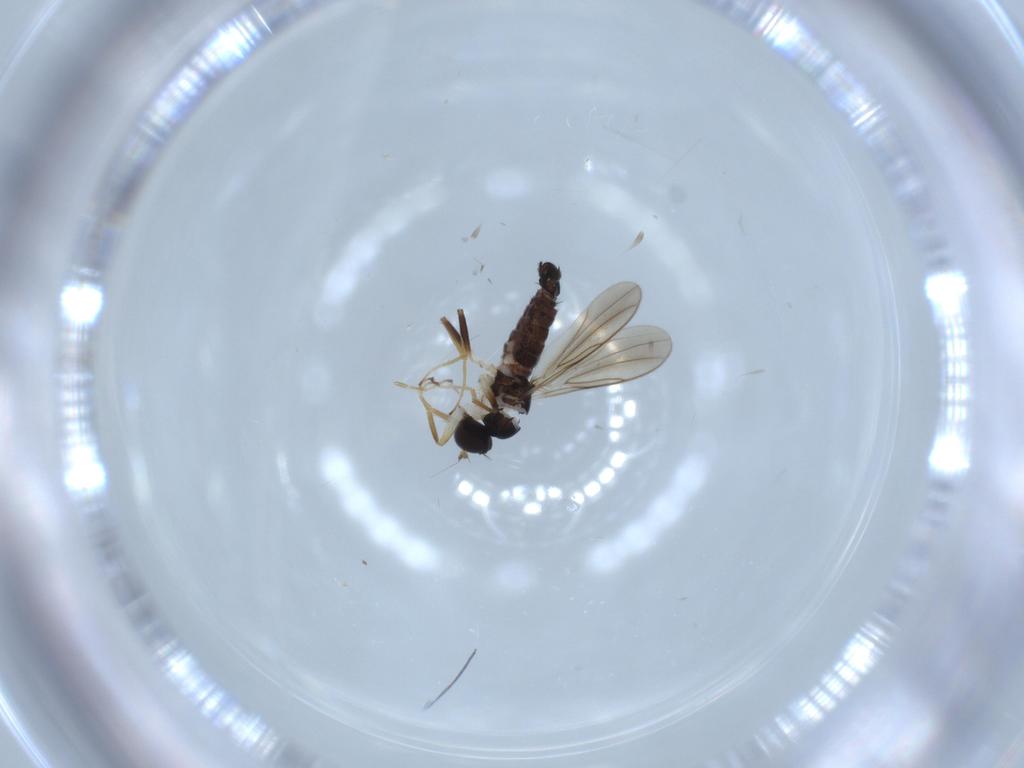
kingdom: Animalia
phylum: Arthropoda
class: Insecta
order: Diptera
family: Hybotidae
